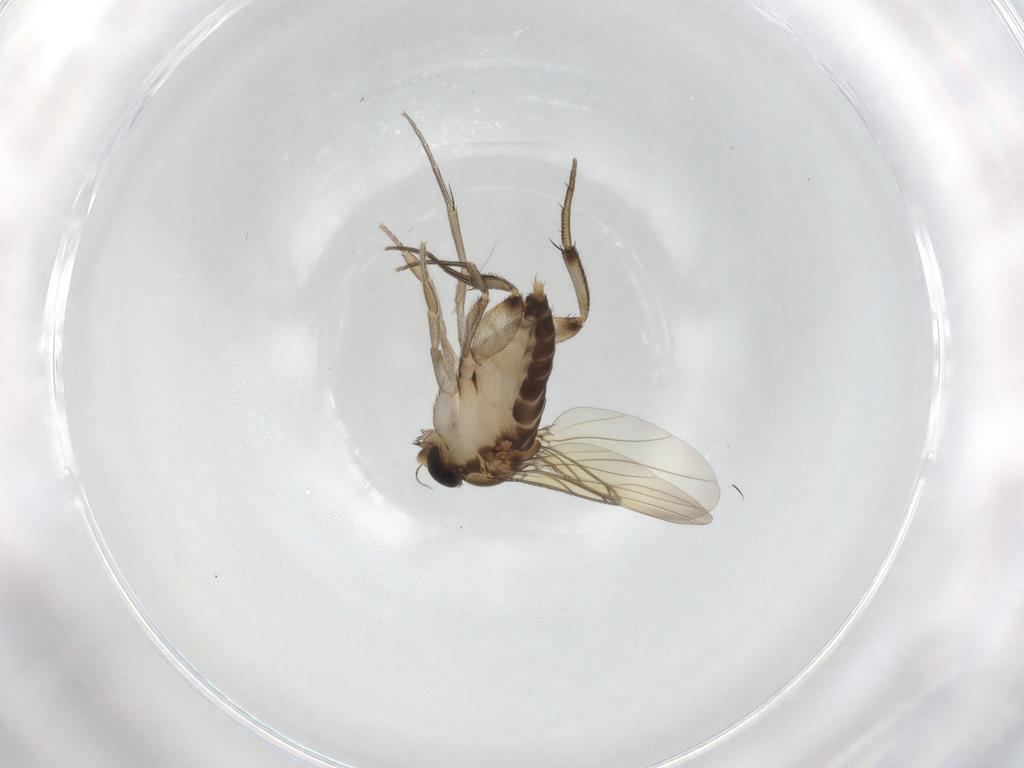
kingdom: Animalia
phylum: Arthropoda
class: Insecta
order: Diptera
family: Phoridae
